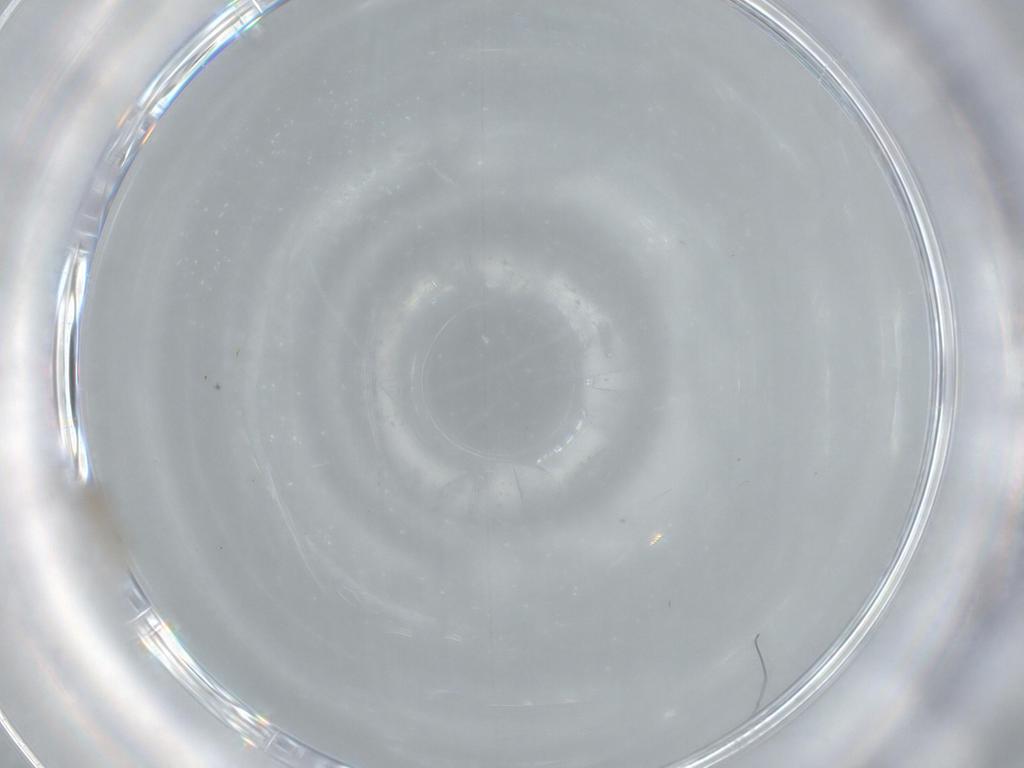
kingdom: Animalia
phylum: Arthropoda
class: Insecta
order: Diptera
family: Cecidomyiidae
